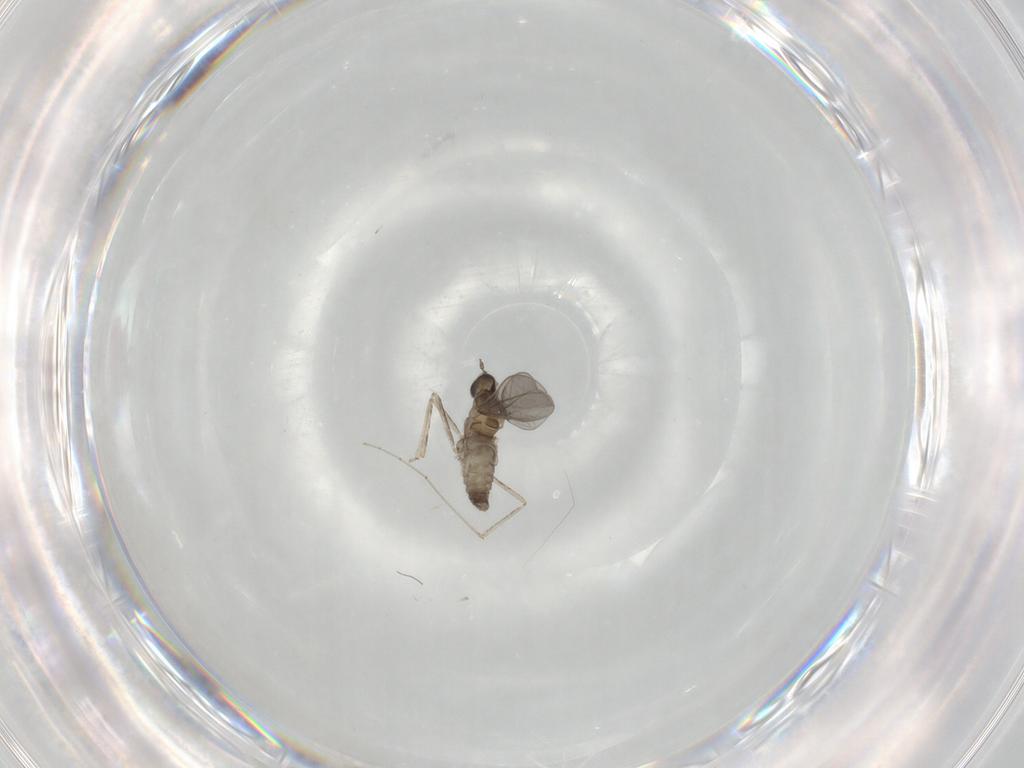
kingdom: Animalia
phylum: Arthropoda
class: Insecta
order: Diptera
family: Cecidomyiidae
